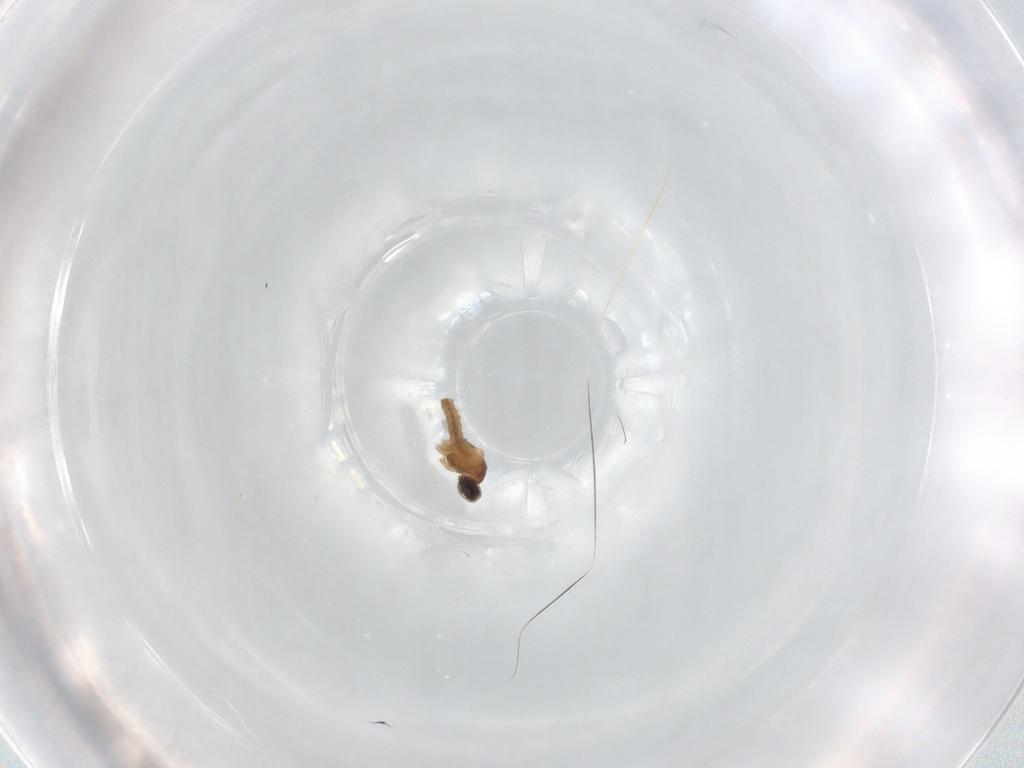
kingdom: Animalia
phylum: Arthropoda
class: Insecta
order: Diptera
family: Cecidomyiidae
